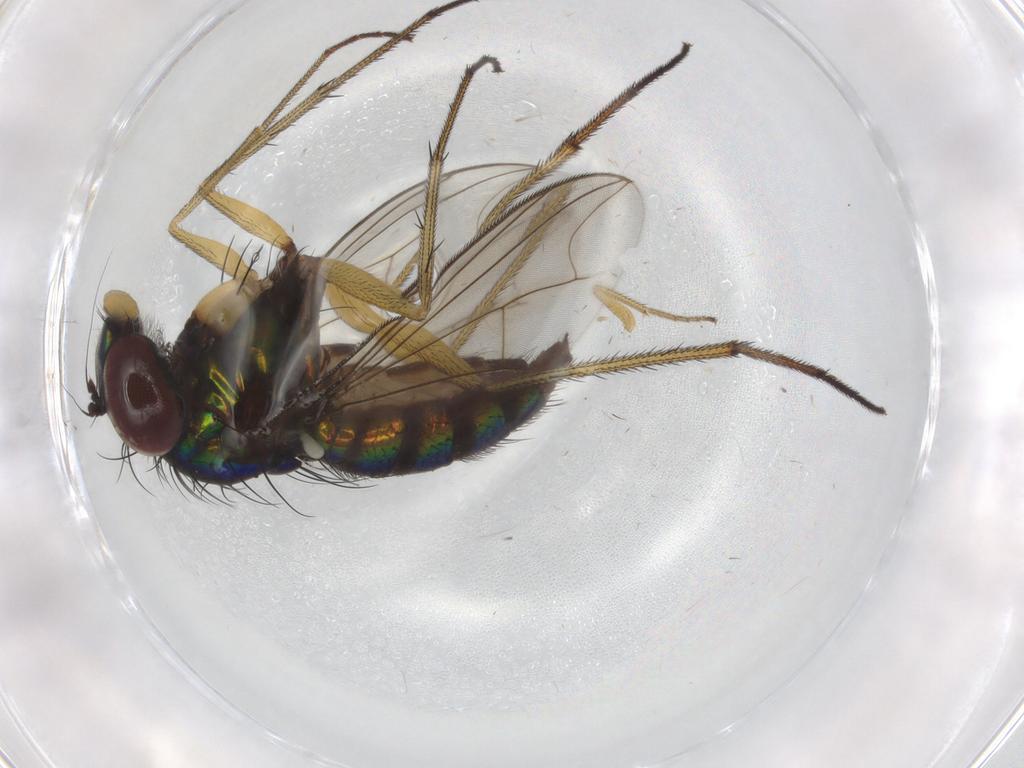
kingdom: Animalia
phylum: Arthropoda
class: Insecta
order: Diptera
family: Dolichopodidae
